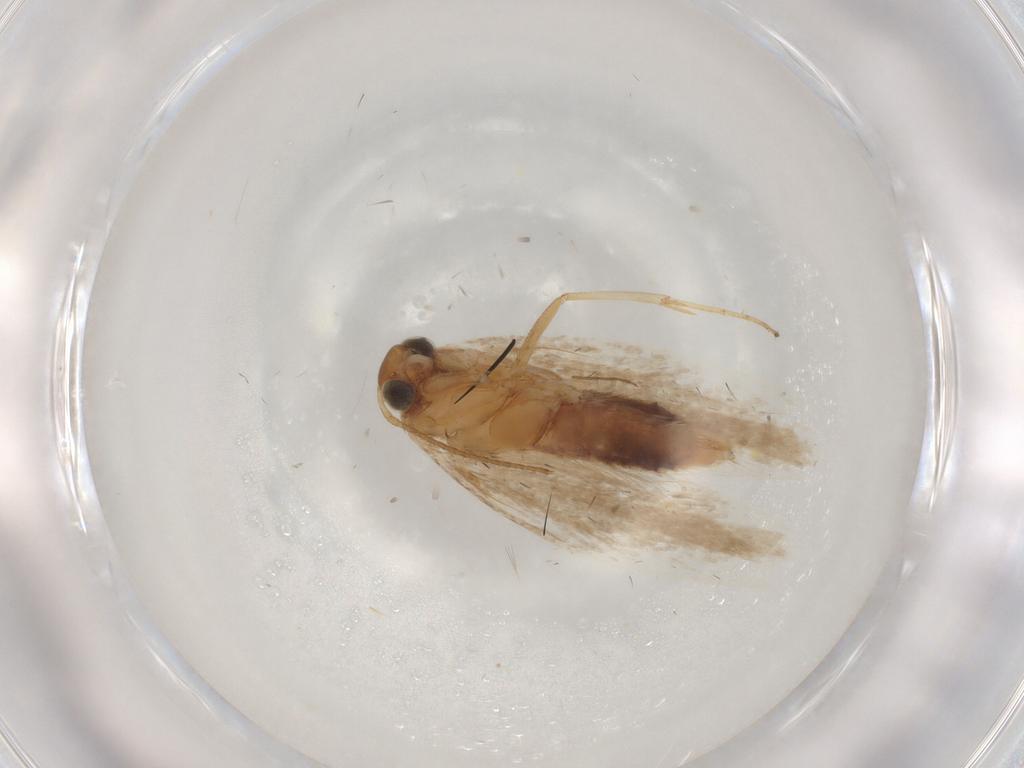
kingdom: Animalia
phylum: Arthropoda
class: Insecta
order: Lepidoptera
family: Gelechiidae
